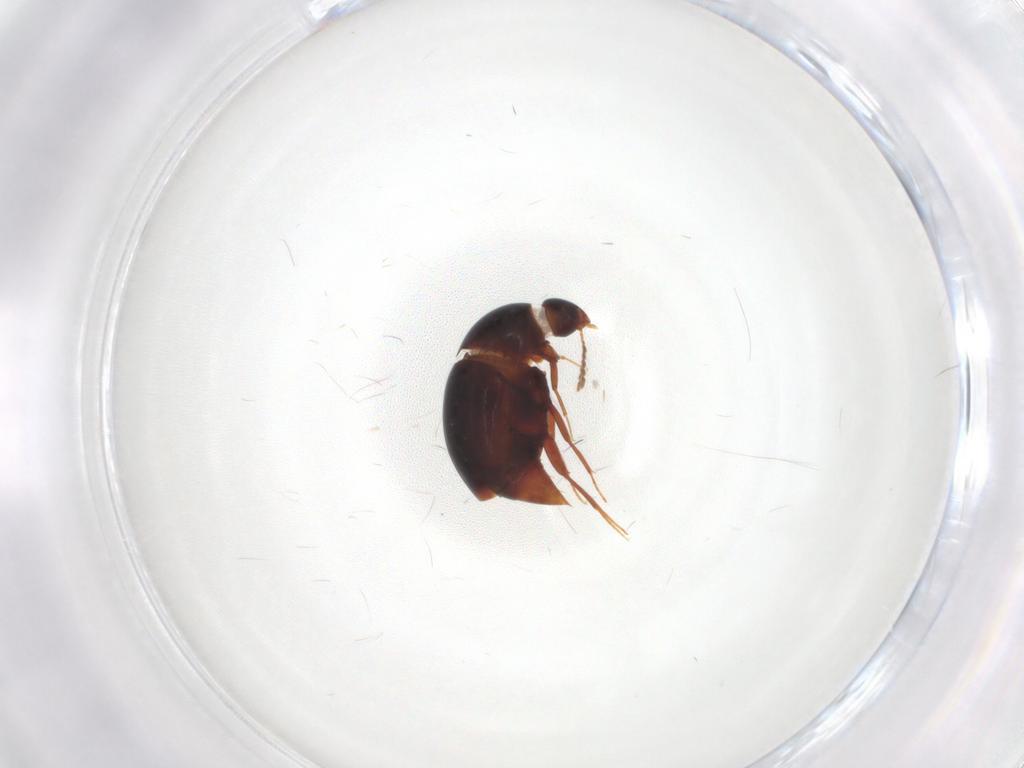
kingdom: Animalia
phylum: Arthropoda
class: Insecta
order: Coleoptera
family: Staphylinidae
